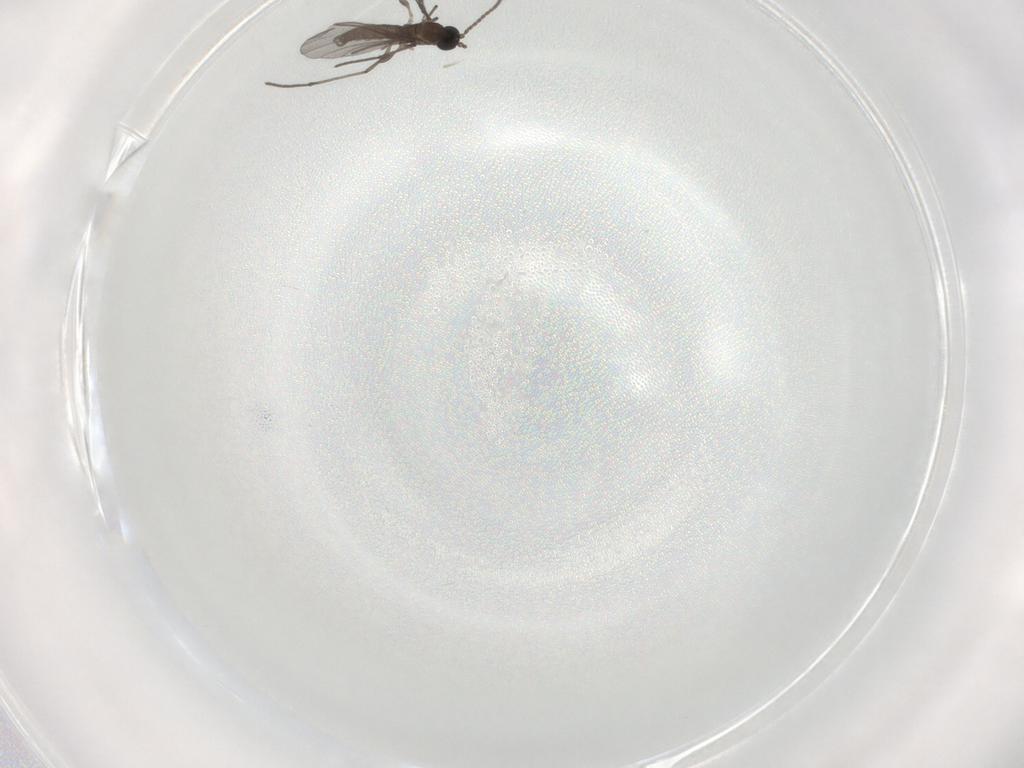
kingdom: Animalia
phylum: Arthropoda
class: Insecta
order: Diptera
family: Sciaridae
